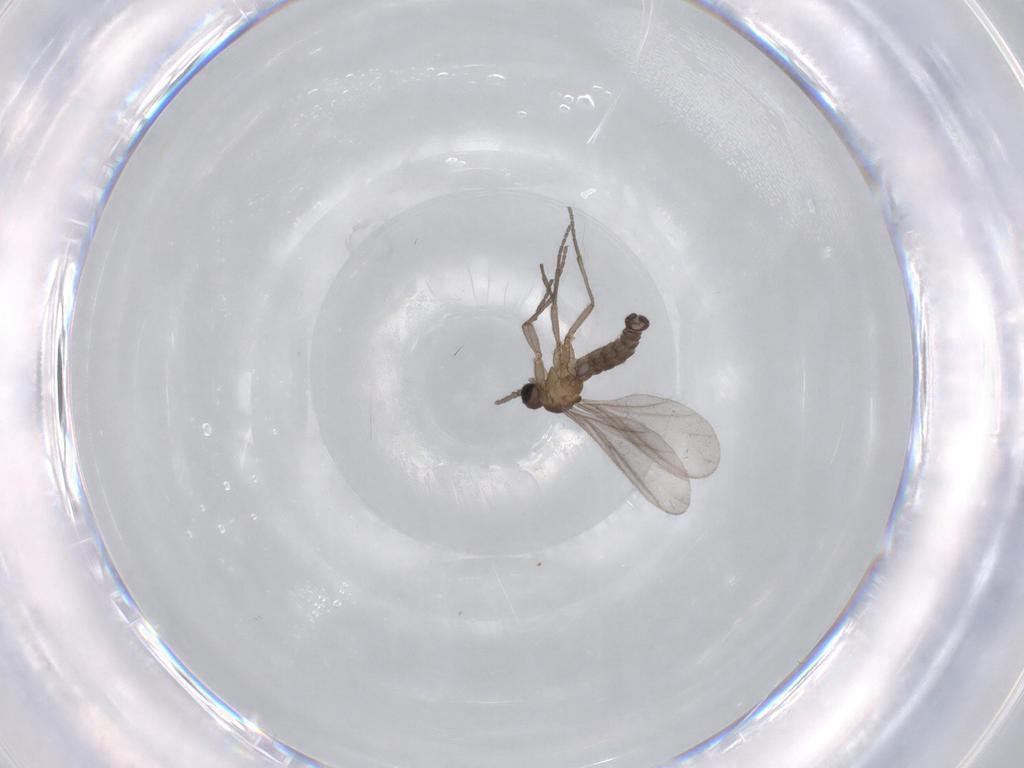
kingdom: Animalia
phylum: Arthropoda
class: Insecta
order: Diptera
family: Sciaridae
